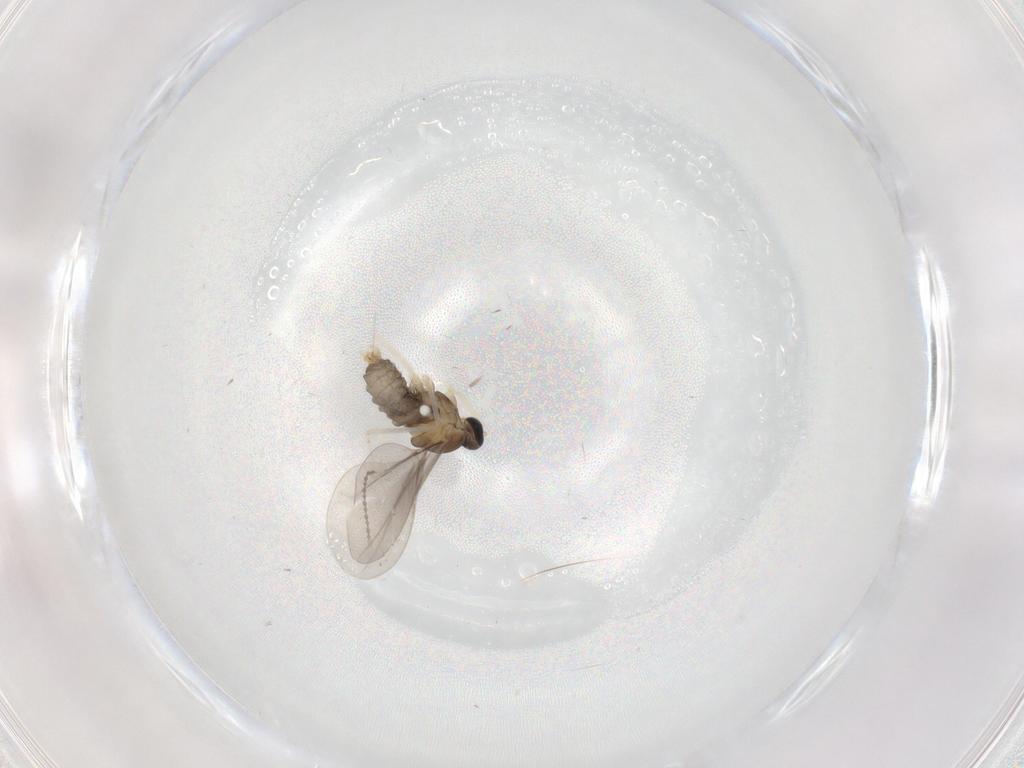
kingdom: Animalia
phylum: Arthropoda
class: Insecta
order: Diptera
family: Cecidomyiidae
